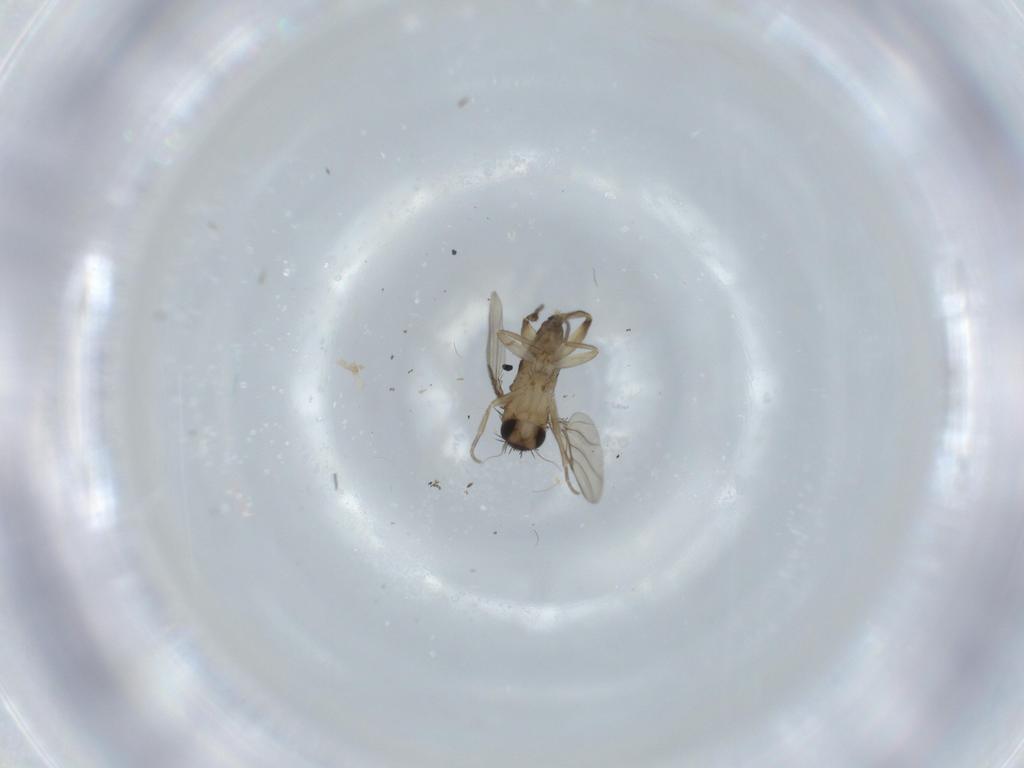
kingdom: Animalia
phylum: Arthropoda
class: Insecta
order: Diptera
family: Phoridae
